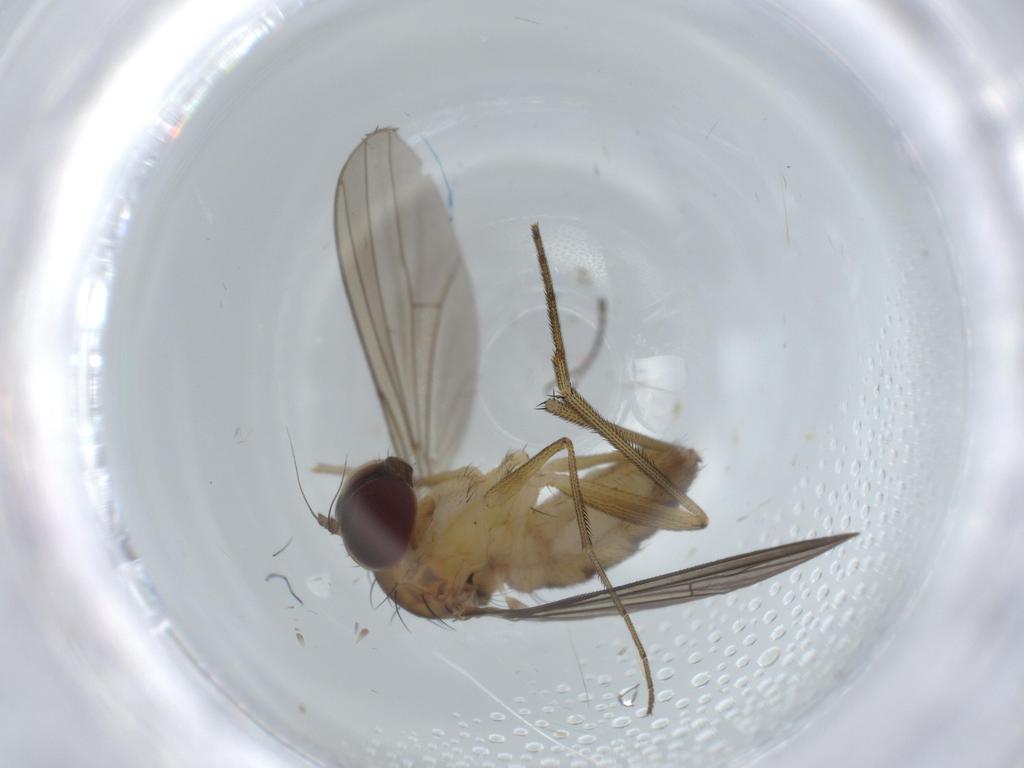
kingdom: Animalia
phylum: Arthropoda
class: Insecta
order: Diptera
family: Dolichopodidae
